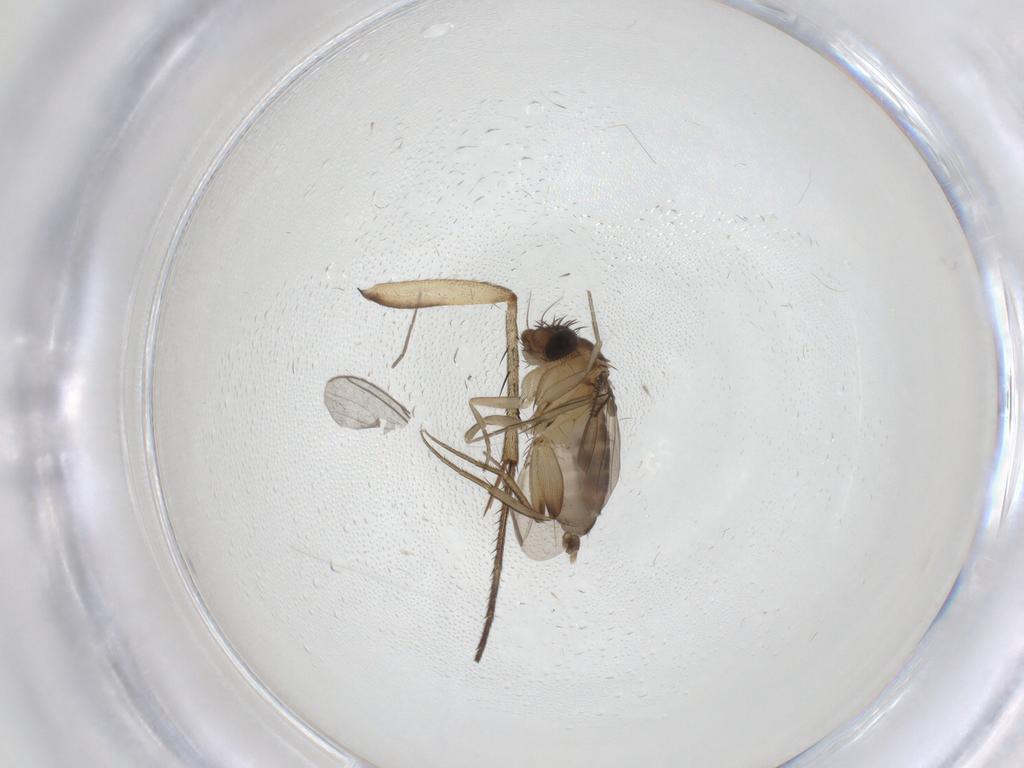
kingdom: Animalia
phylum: Arthropoda
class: Insecta
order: Diptera
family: Phoridae
